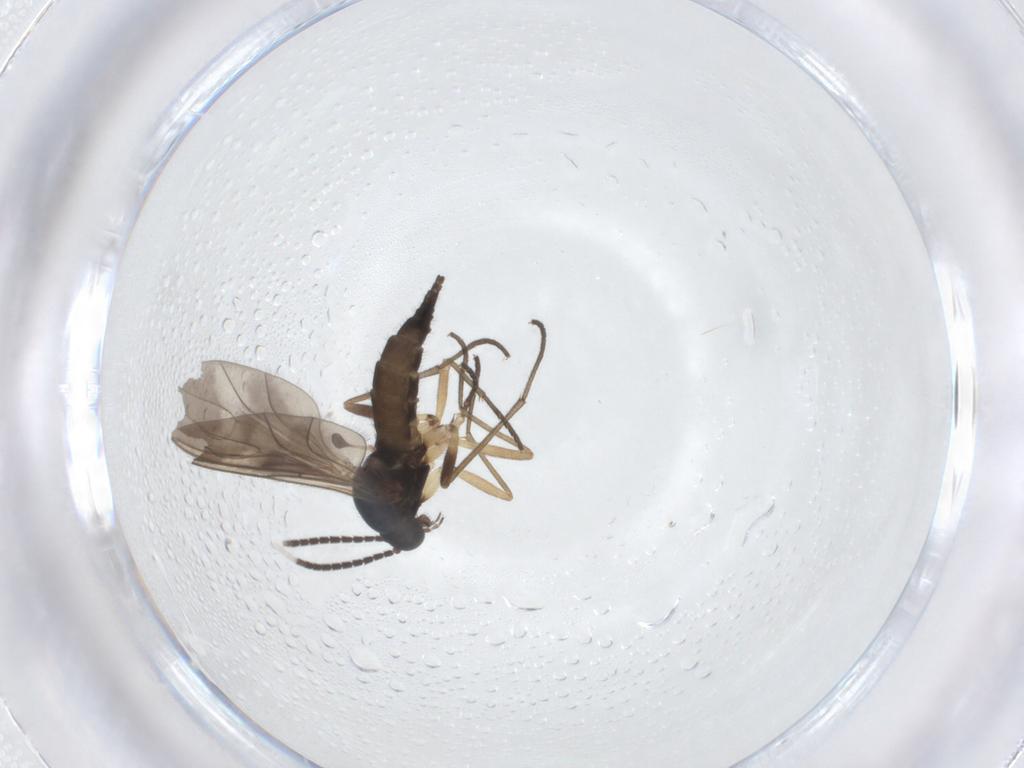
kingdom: Animalia
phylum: Arthropoda
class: Insecta
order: Diptera
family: Sciaridae
